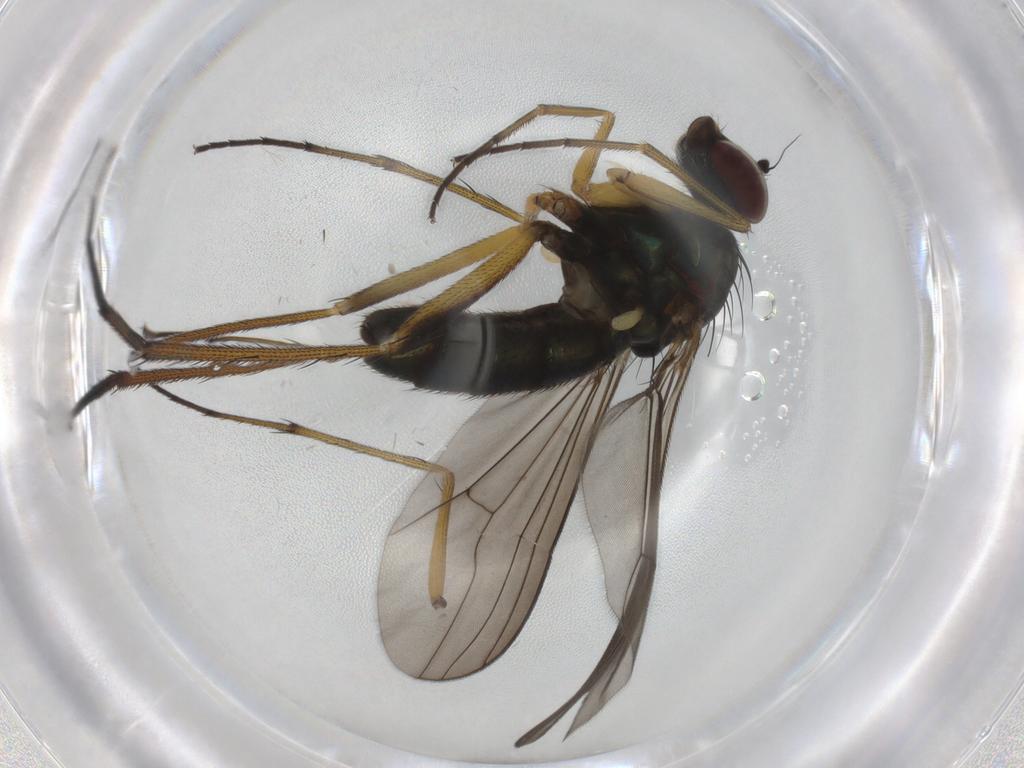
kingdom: Animalia
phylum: Arthropoda
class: Insecta
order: Diptera
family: Dolichopodidae
